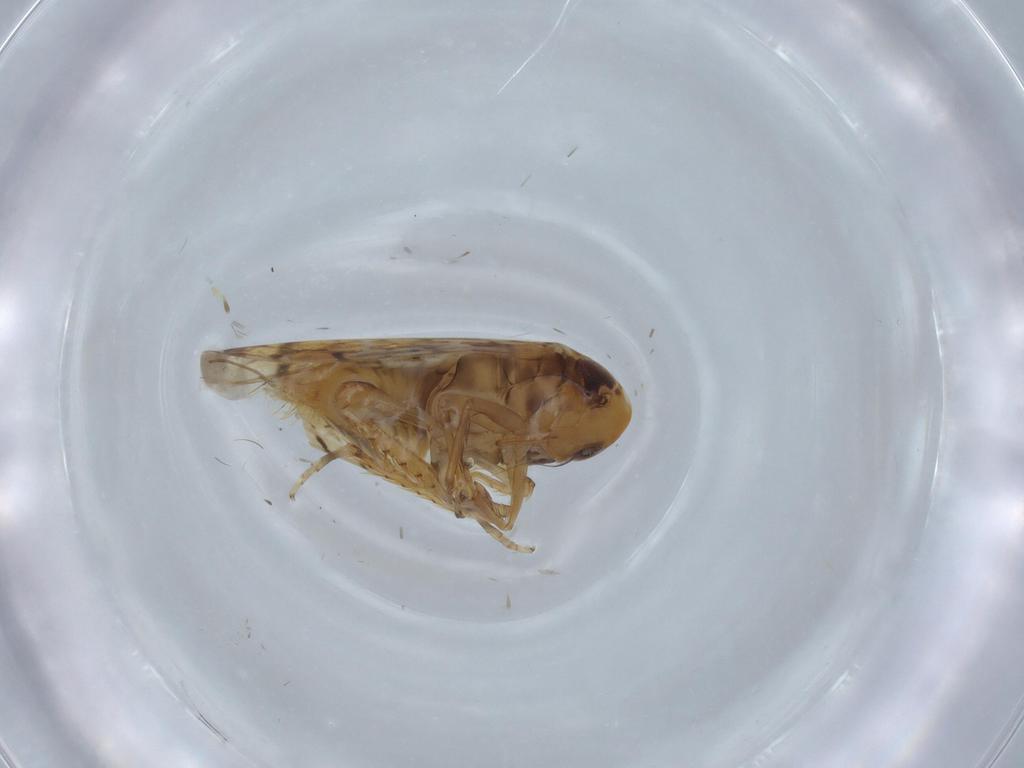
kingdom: Animalia
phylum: Arthropoda
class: Insecta
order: Hemiptera
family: Cicadellidae
